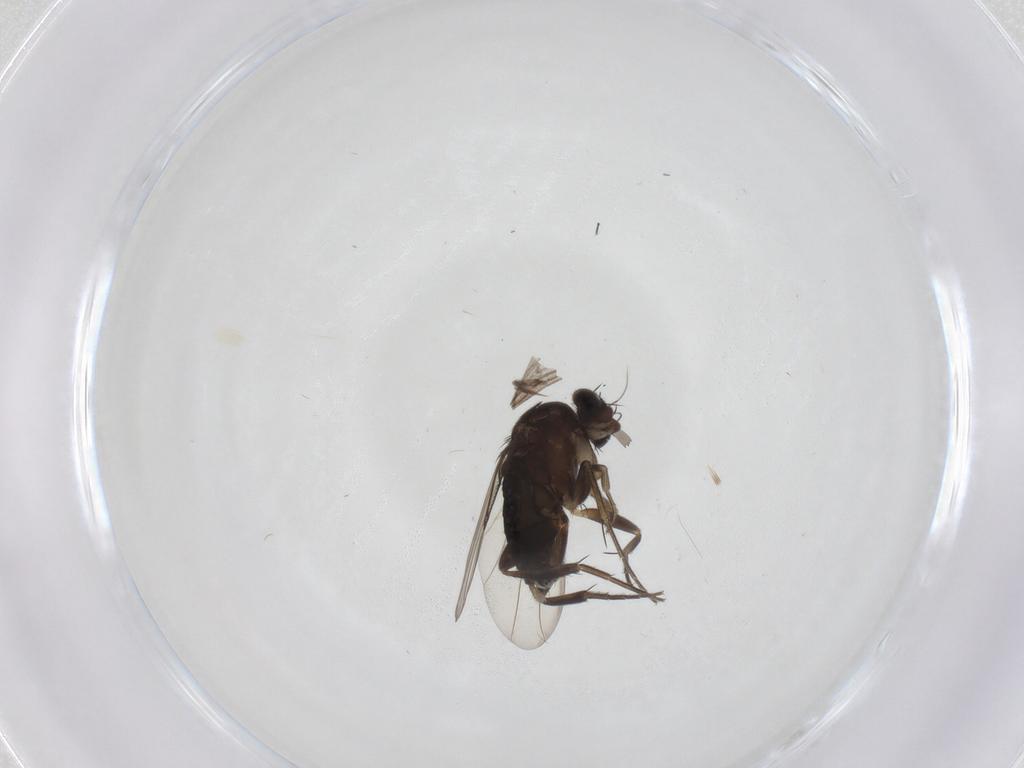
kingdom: Animalia
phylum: Arthropoda
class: Insecta
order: Diptera
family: Phoridae
